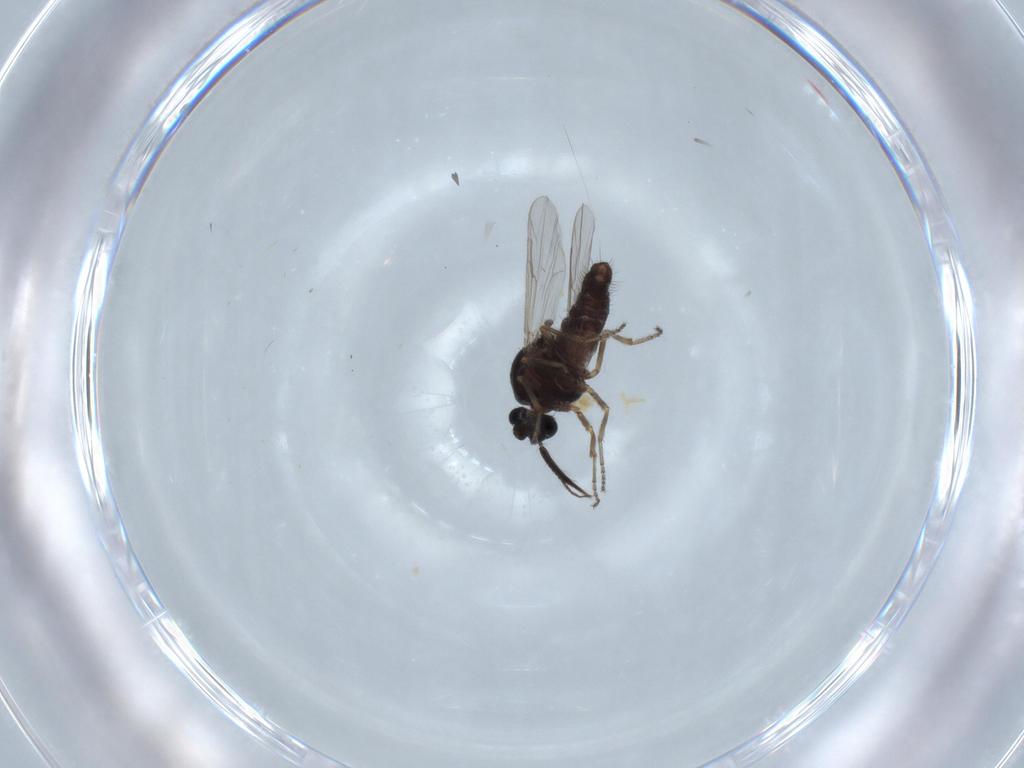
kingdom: Animalia
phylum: Arthropoda
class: Insecta
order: Diptera
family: Ceratopogonidae
